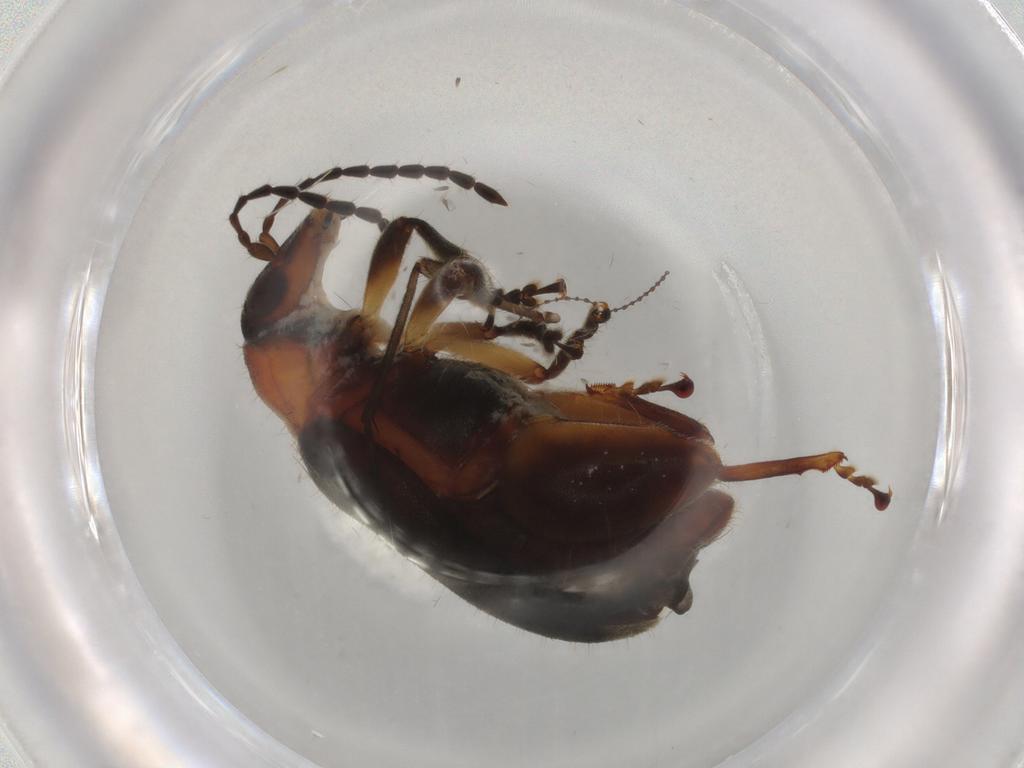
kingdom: Animalia
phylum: Arthropoda
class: Insecta
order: Coleoptera
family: Chrysomelidae
